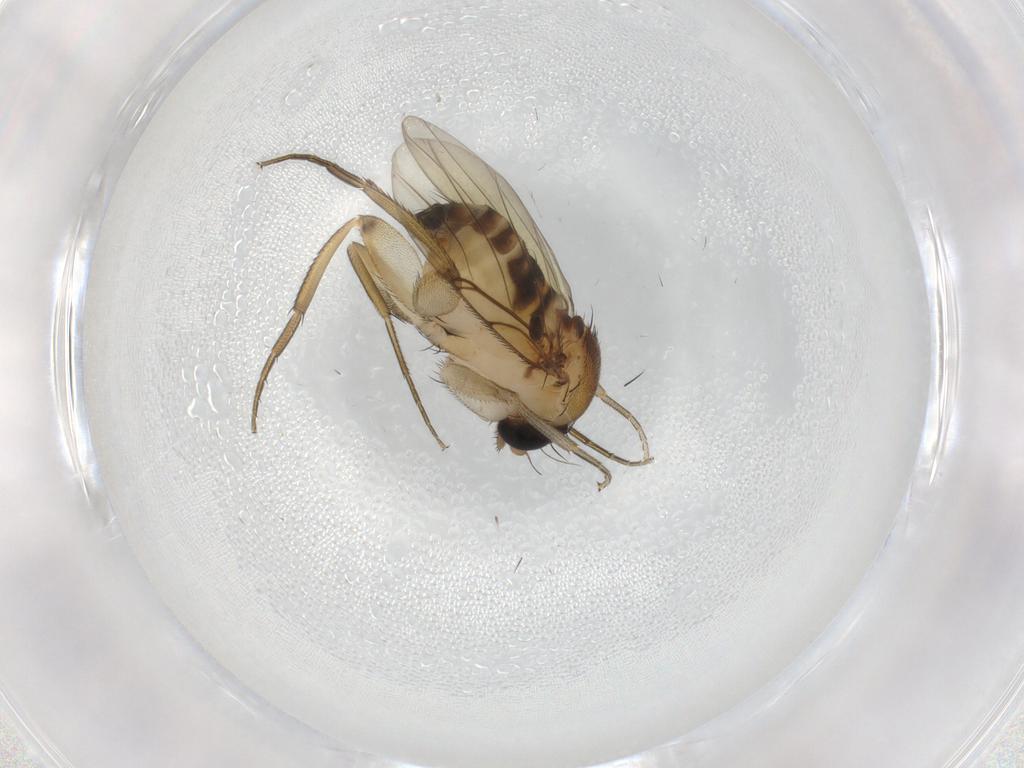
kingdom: Animalia
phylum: Arthropoda
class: Insecta
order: Diptera
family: Phoridae
